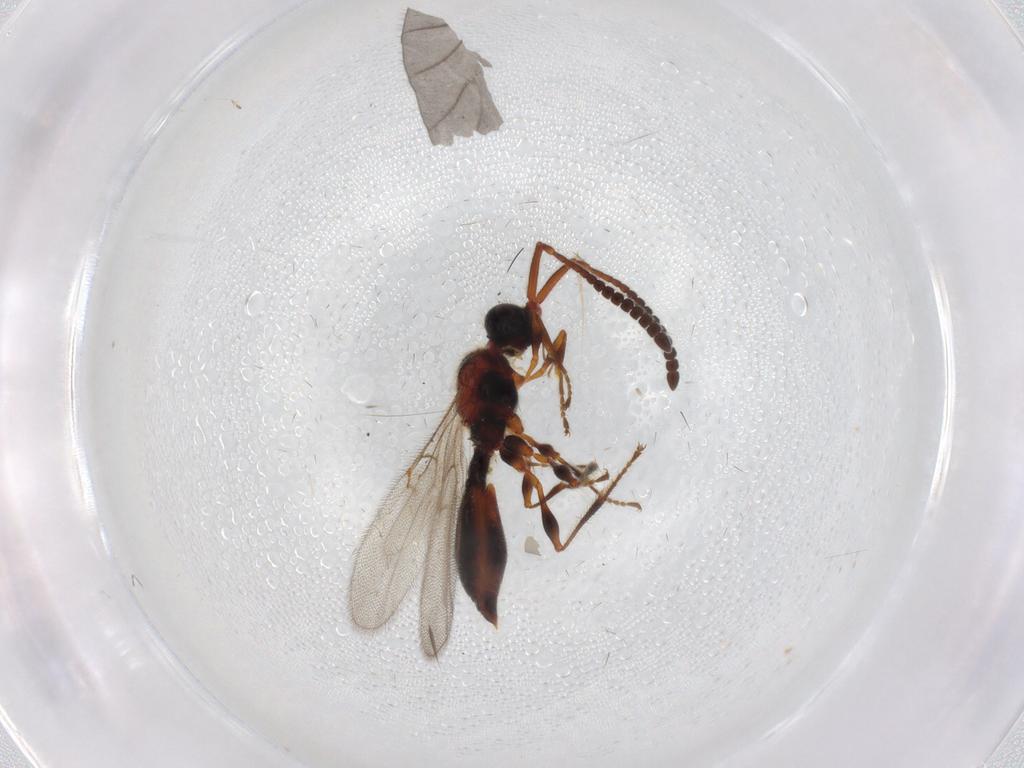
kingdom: Animalia
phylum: Arthropoda
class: Insecta
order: Hymenoptera
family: Diapriidae
